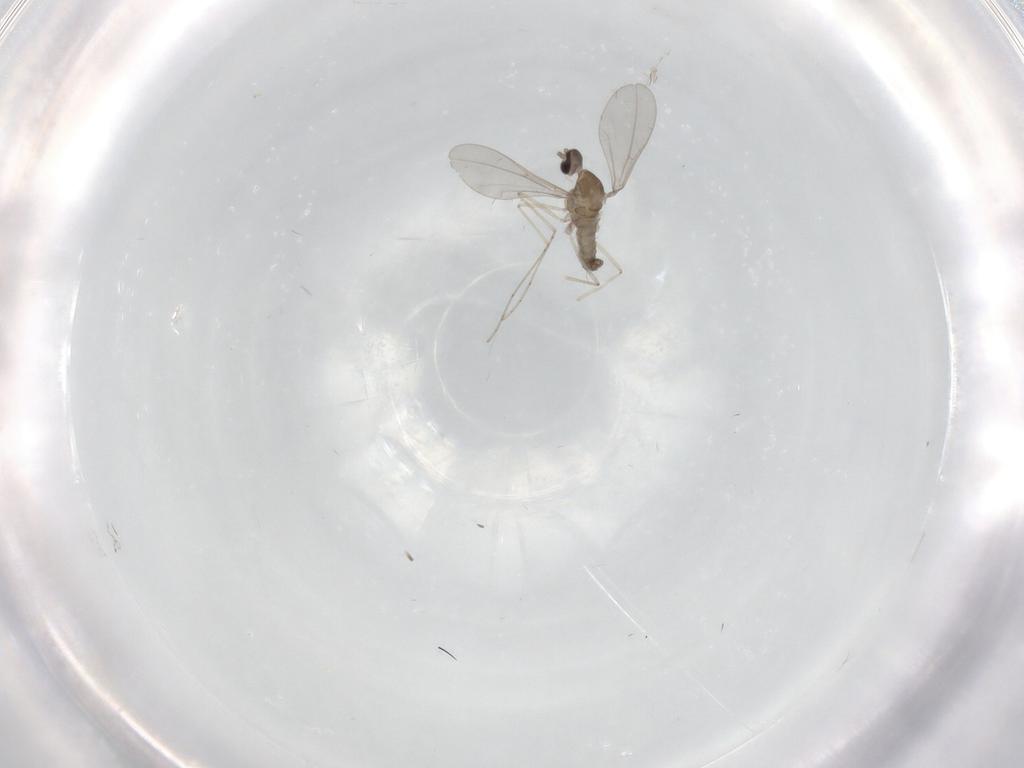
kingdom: Animalia
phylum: Arthropoda
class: Insecta
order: Diptera
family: Cecidomyiidae
